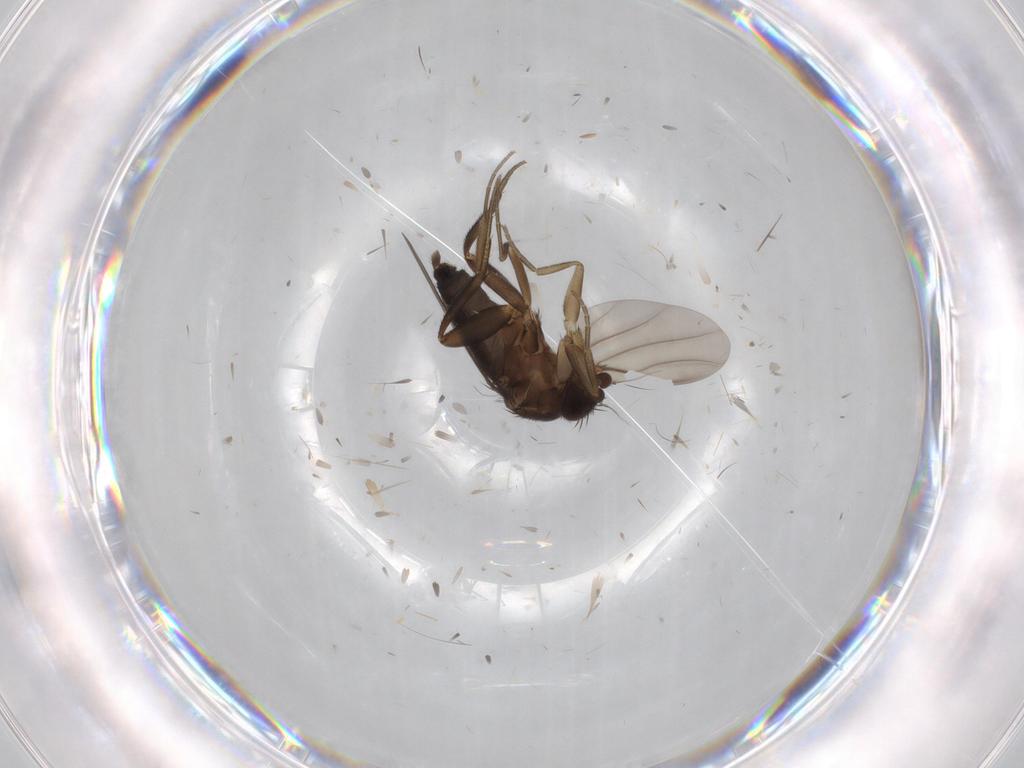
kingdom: Animalia
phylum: Arthropoda
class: Insecta
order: Diptera
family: Phoridae
